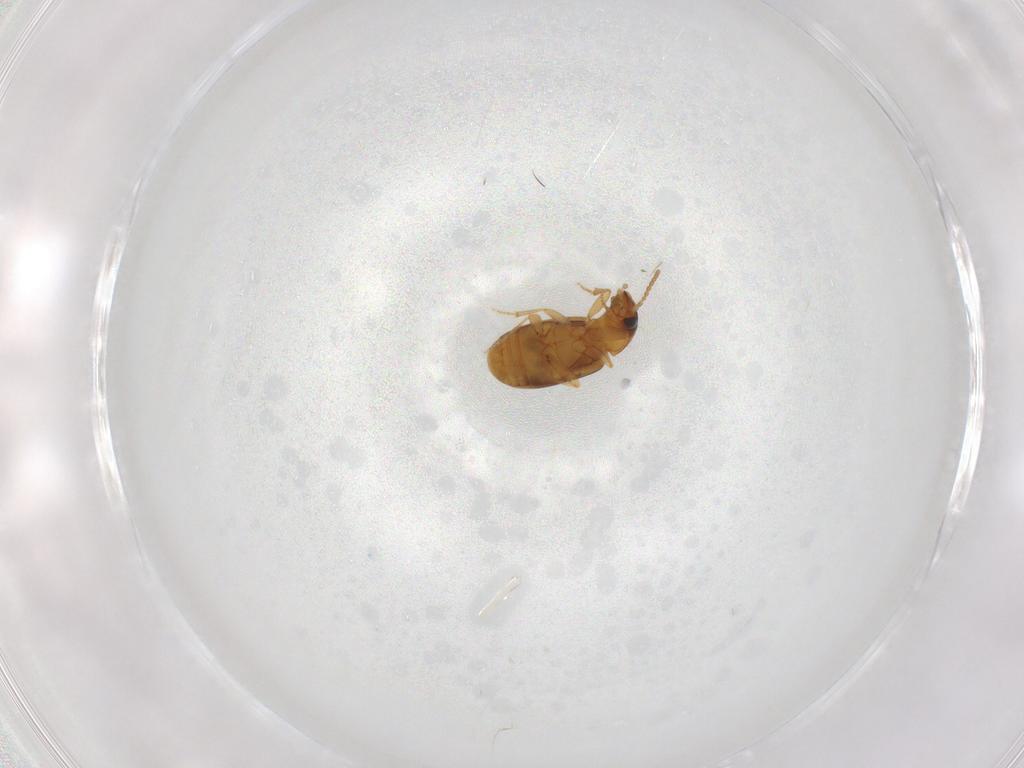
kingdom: Animalia
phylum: Arthropoda
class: Insecta
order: Coleoptera
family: Carabidae
